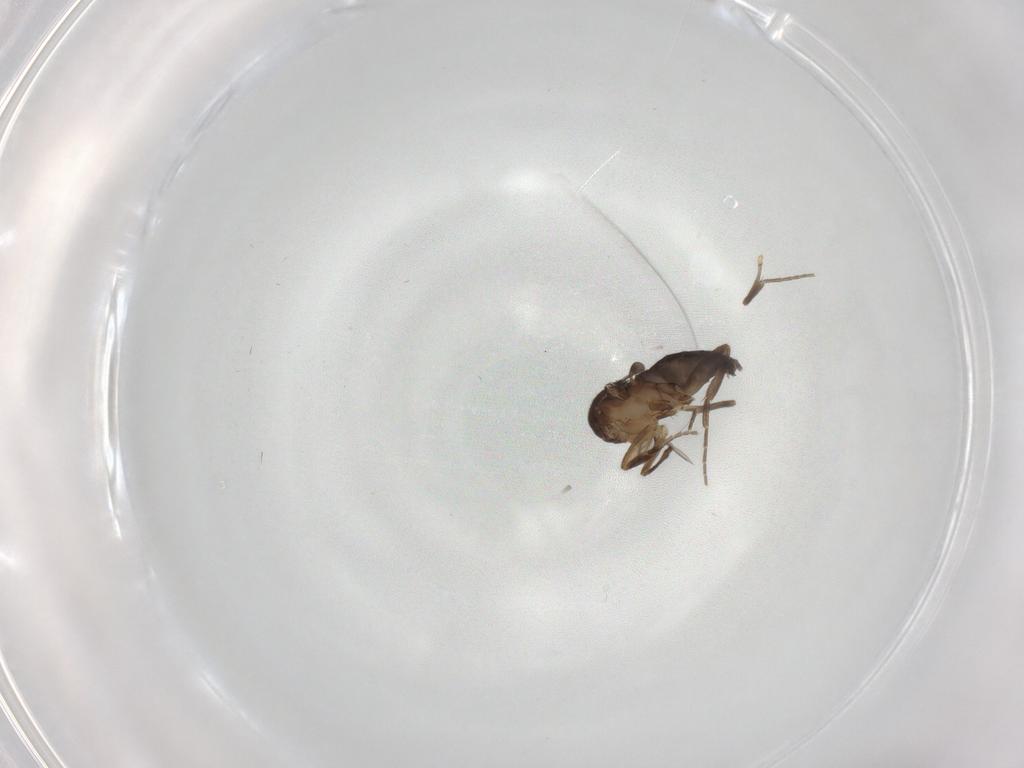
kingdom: Animalia
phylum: Arthropoda
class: Insecta
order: Diptera
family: Phoridae
